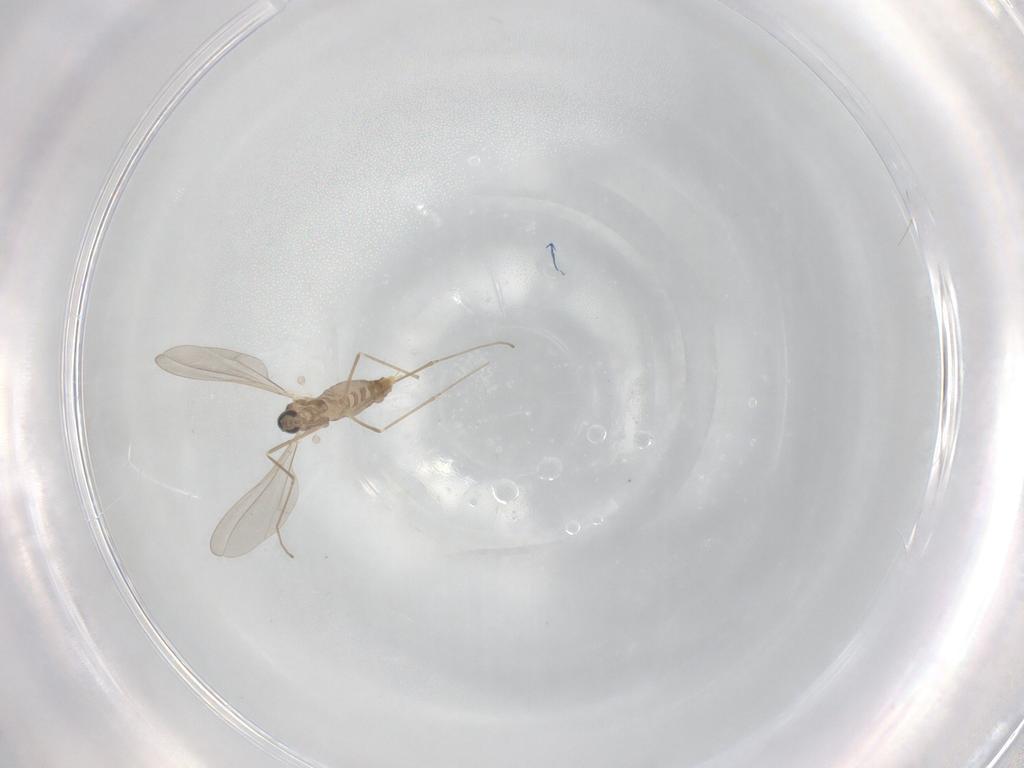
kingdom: Animalia
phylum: Arthropoda
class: Insecta
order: Diptera
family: Cecidomyiidae
